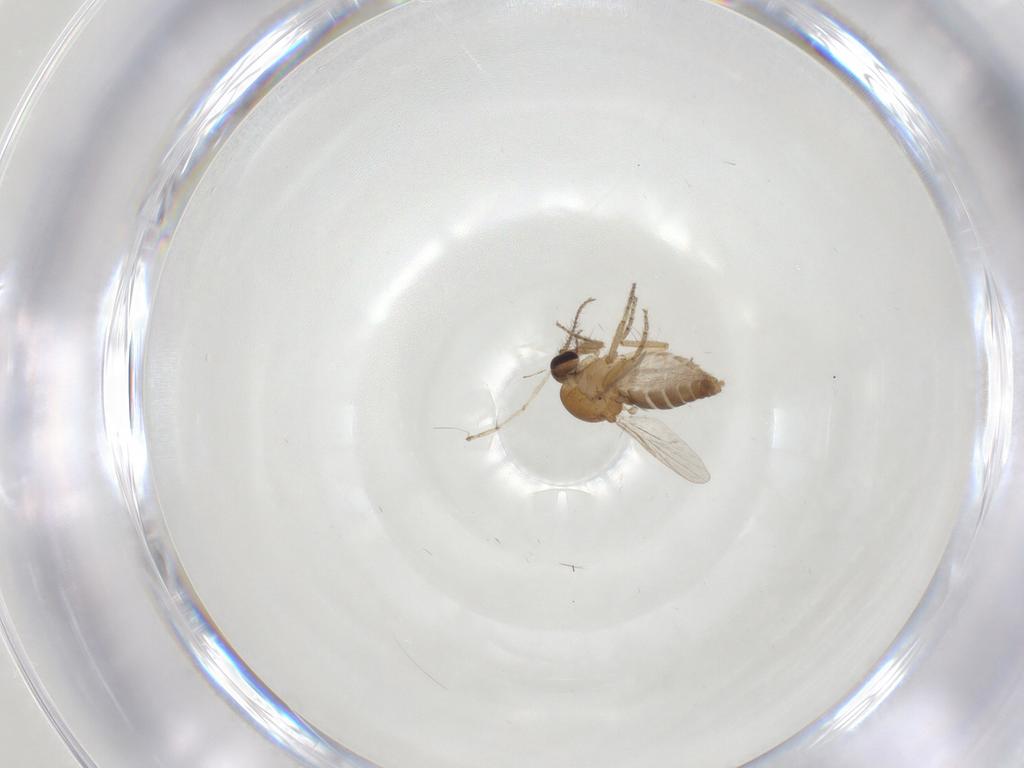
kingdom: Animalia
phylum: Arthropoda
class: Insecta
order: Diptera
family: Ceratopogonidae
